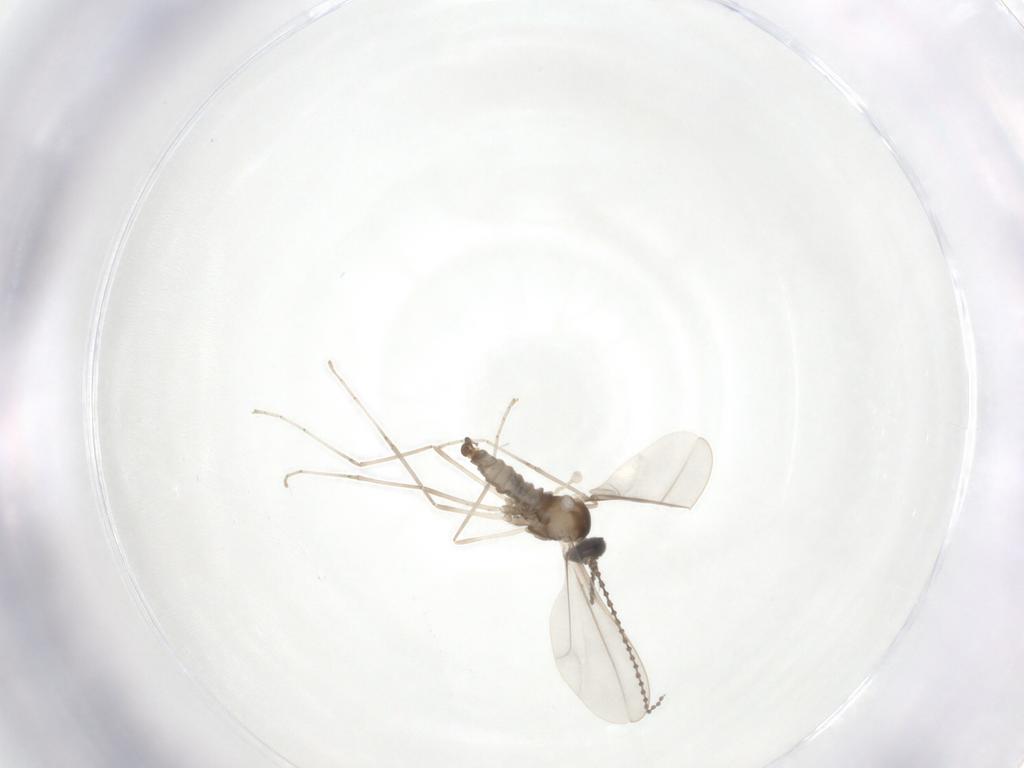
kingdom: Animalia
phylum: Arthropoda
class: Insecta
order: Diptera
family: Cecidomyiidae
